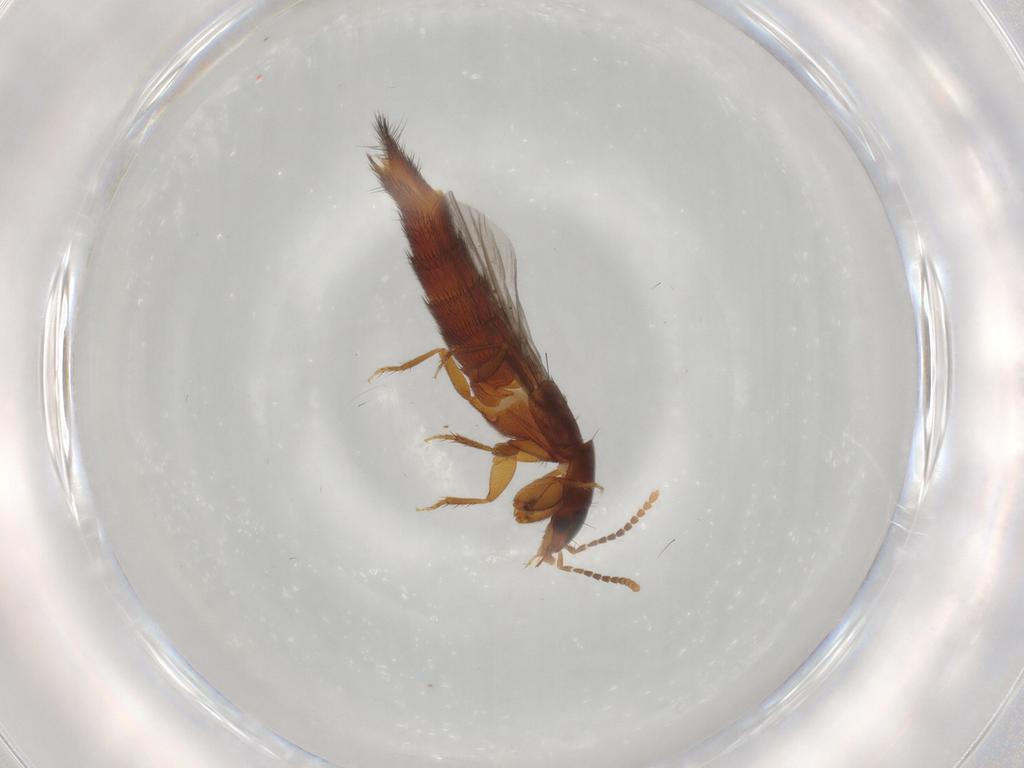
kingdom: Animalia
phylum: Arthropoda
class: Insecta
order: Coleoptera
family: Staphylinidae
